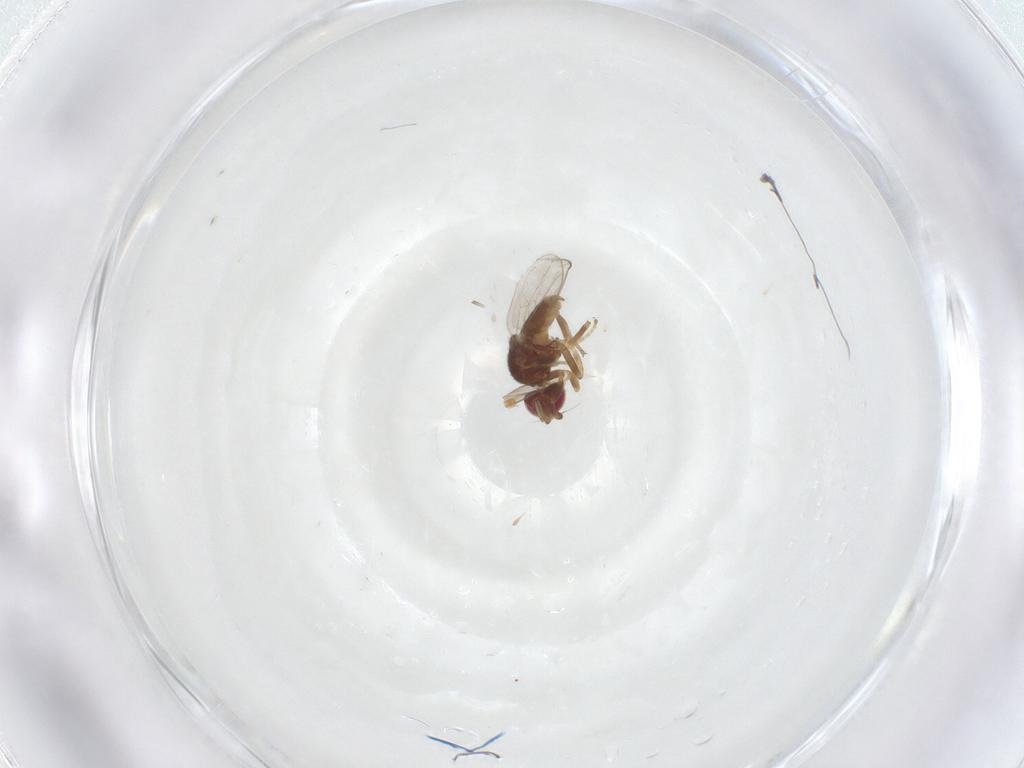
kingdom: Animalia
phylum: Arthropoda
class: Insecta
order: Diptera
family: Chloropidae
